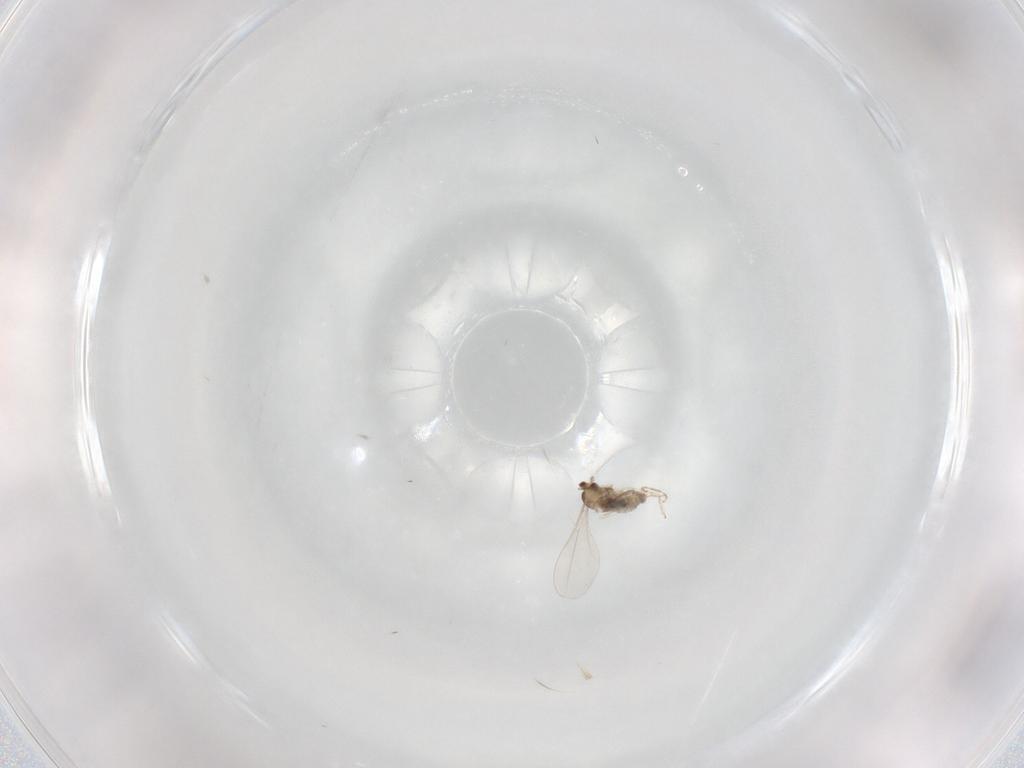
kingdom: Animalia
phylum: Arthropoda
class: Insecta
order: Diptera
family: Cecidomyiidae
